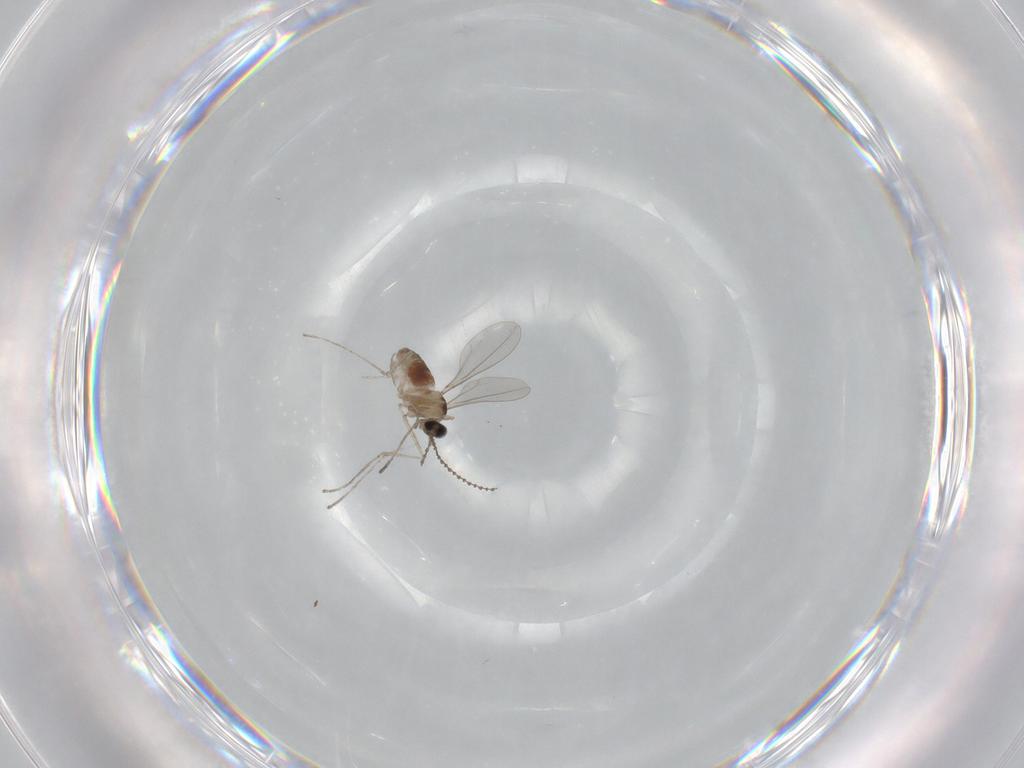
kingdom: Animalia
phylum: Arthropoda
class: Insecta
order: Diptera
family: Cecidomyiidae
